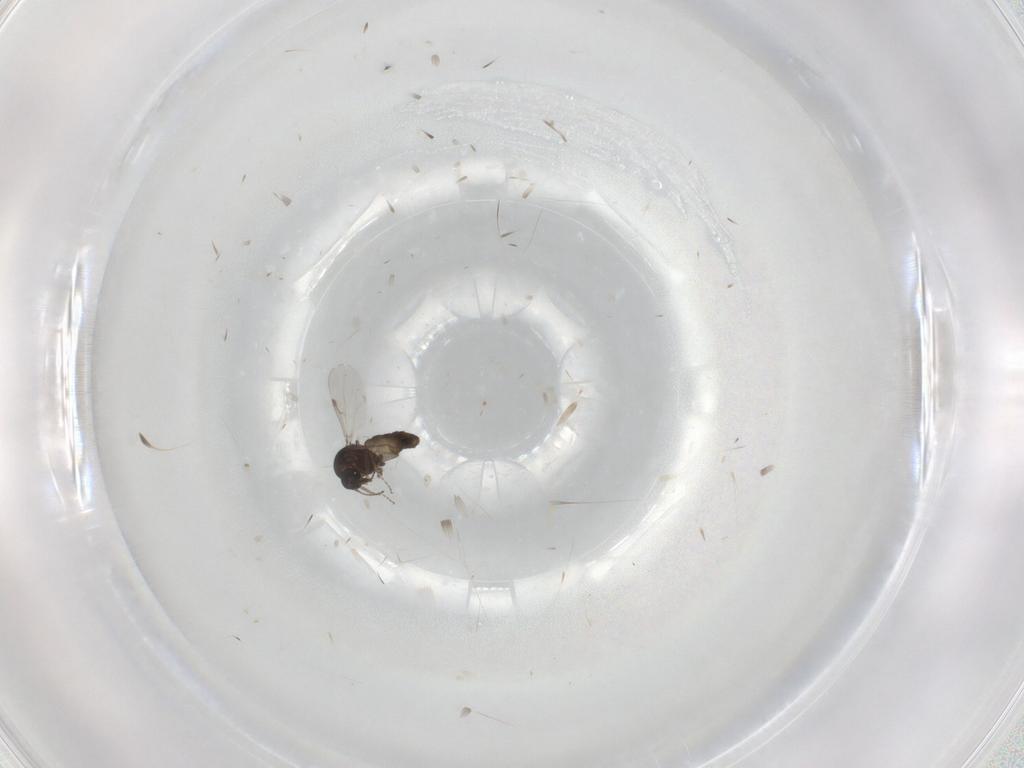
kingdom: Animalia
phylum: Arthropoda
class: Insecta
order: Diptera
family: Ceratopogonidae
